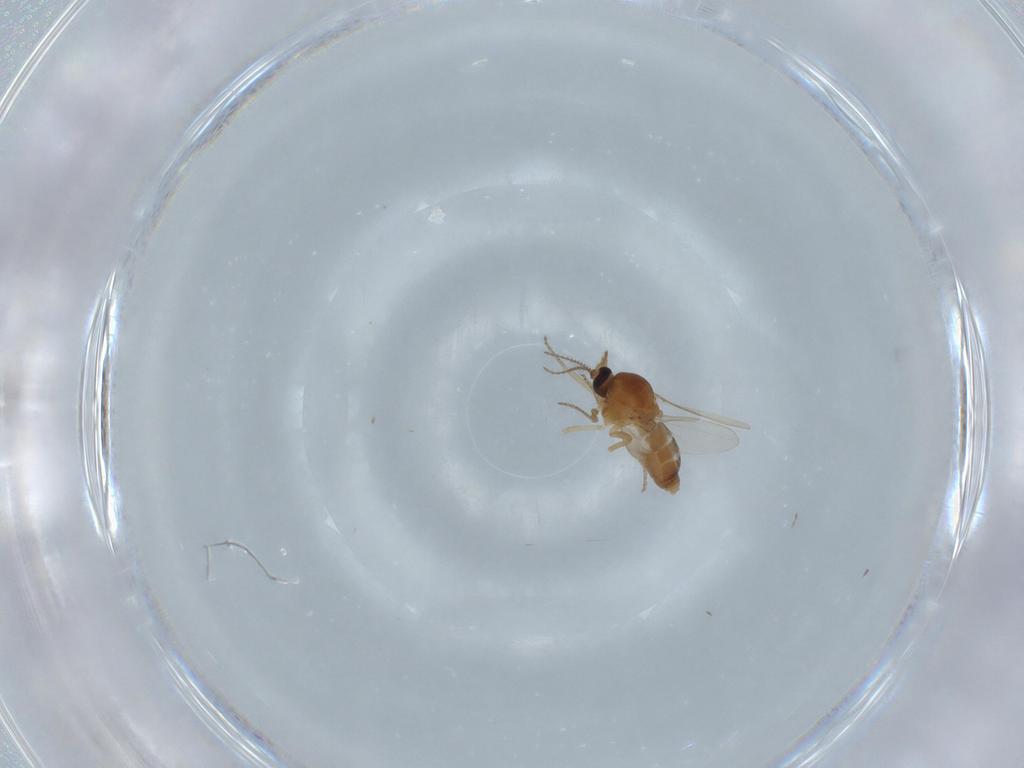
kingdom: Animalia
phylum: Arthropoda
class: Insecta
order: Diptera
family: Ceratopogonidae
